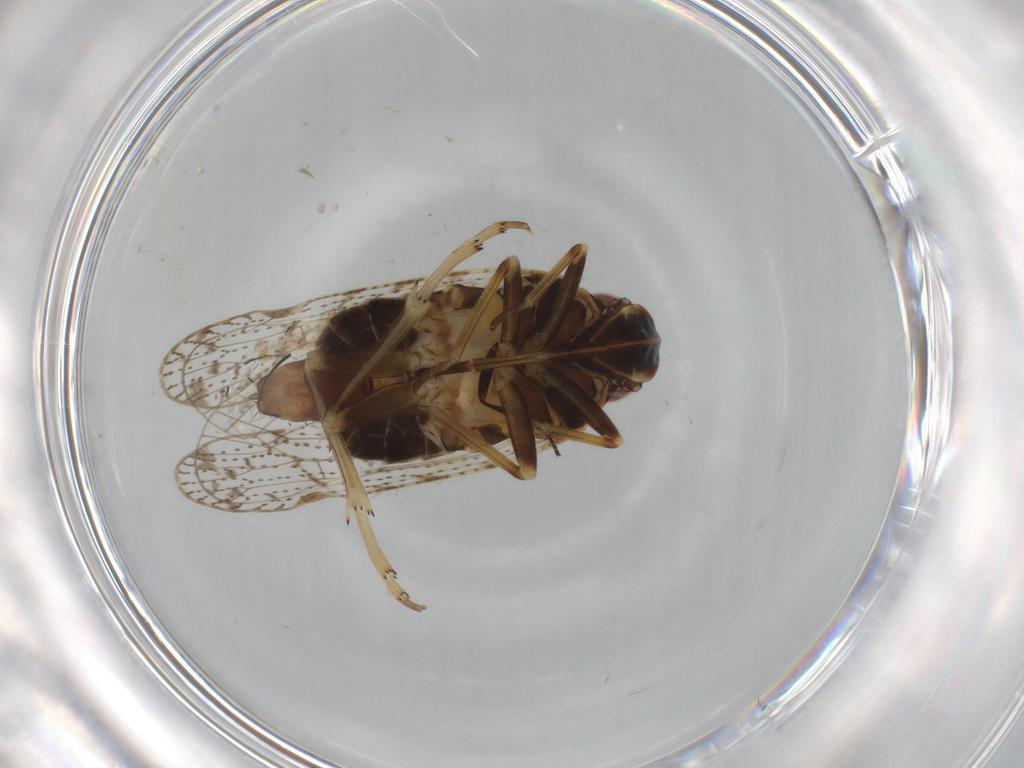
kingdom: Animalia
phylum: Arthropoda
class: Insecta
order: Hemiptera
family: Cixiidae
